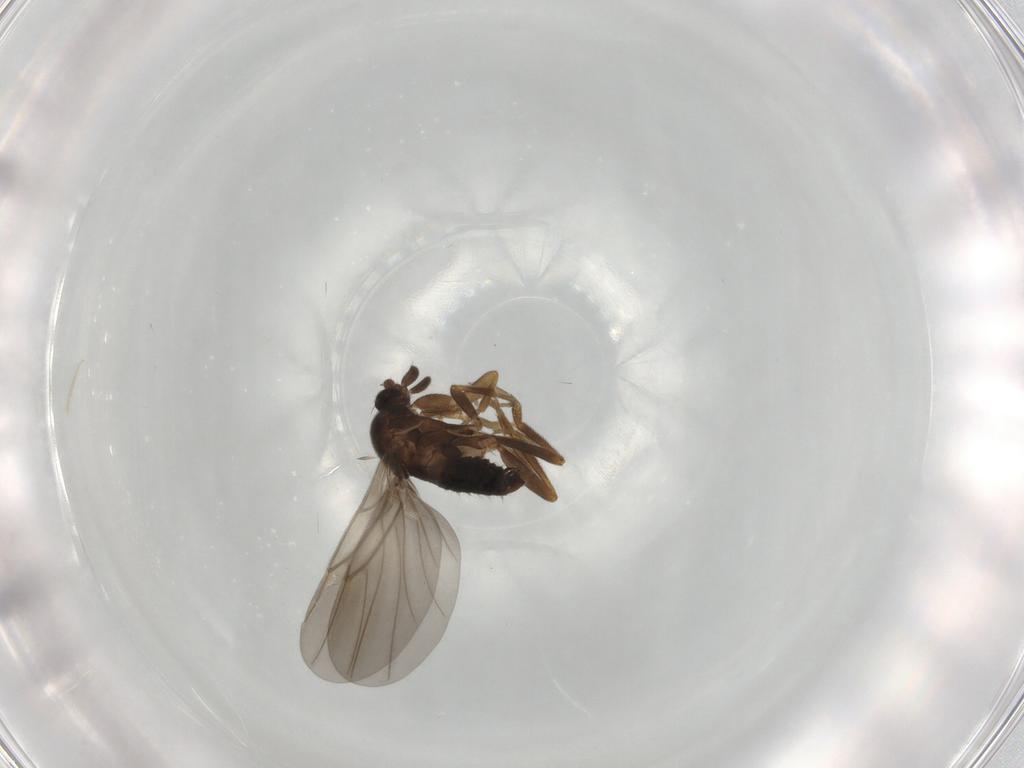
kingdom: Animalia
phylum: Arthropoda
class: Insecta
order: Diptera
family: Sciaridae
